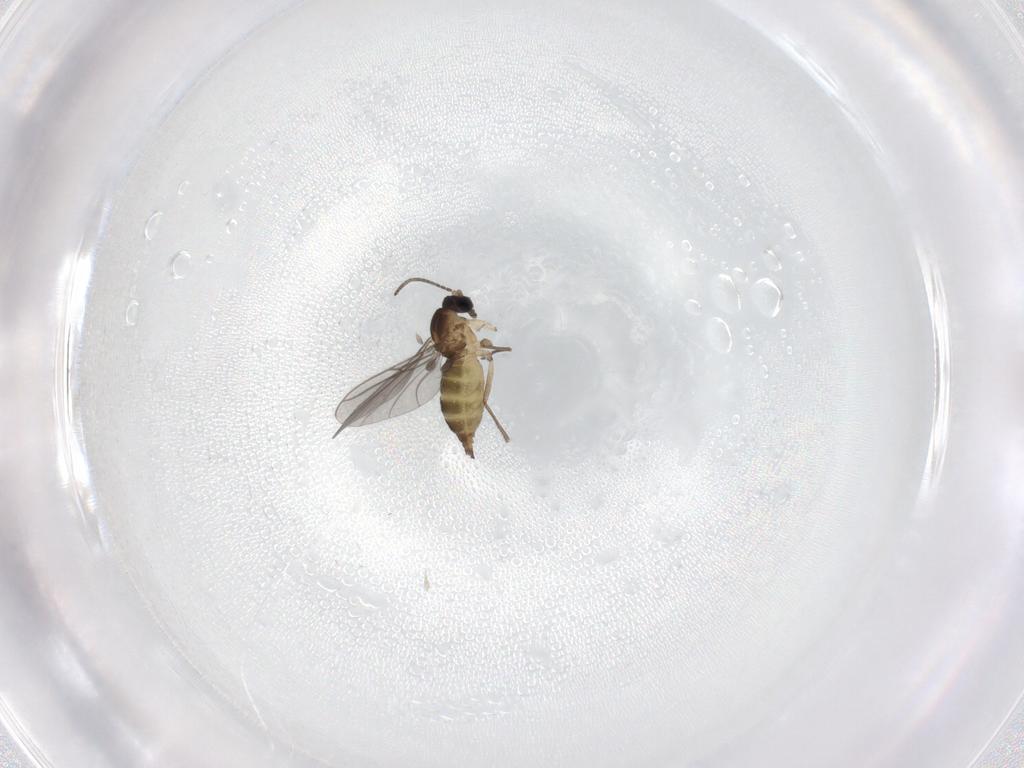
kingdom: Animalia
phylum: Arthropoda
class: Insecta
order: Diptera
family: Sciaridae
